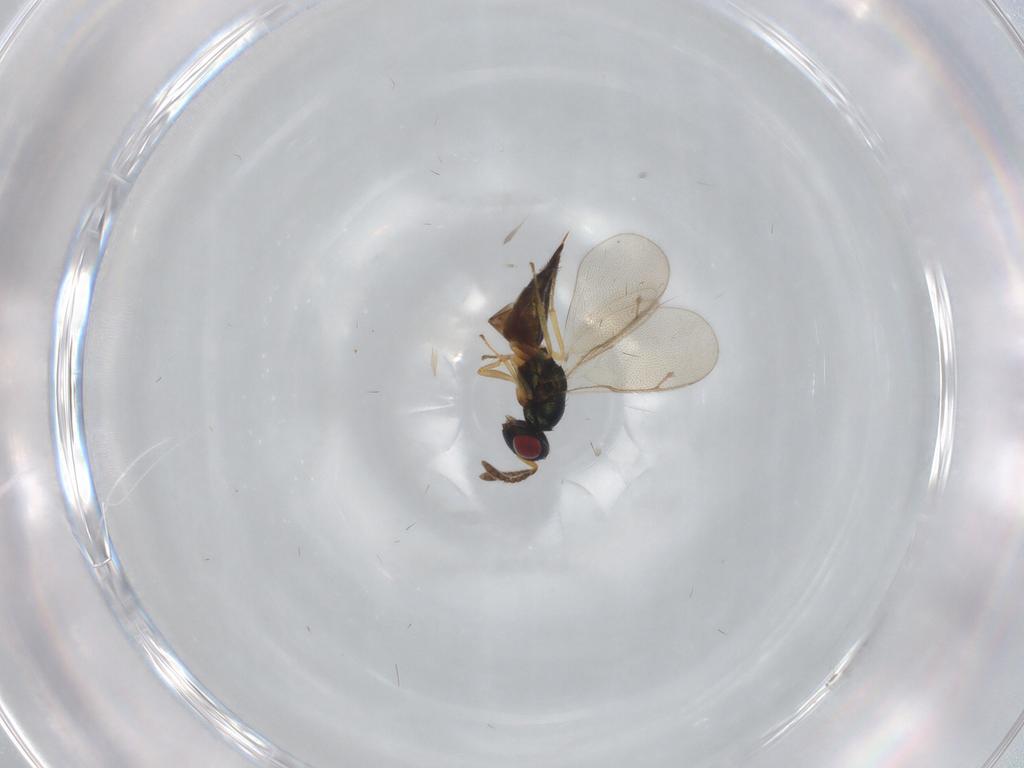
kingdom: Animalia
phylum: Arthropoda
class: Insecta
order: Hymenoptera
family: Pteromalidae
